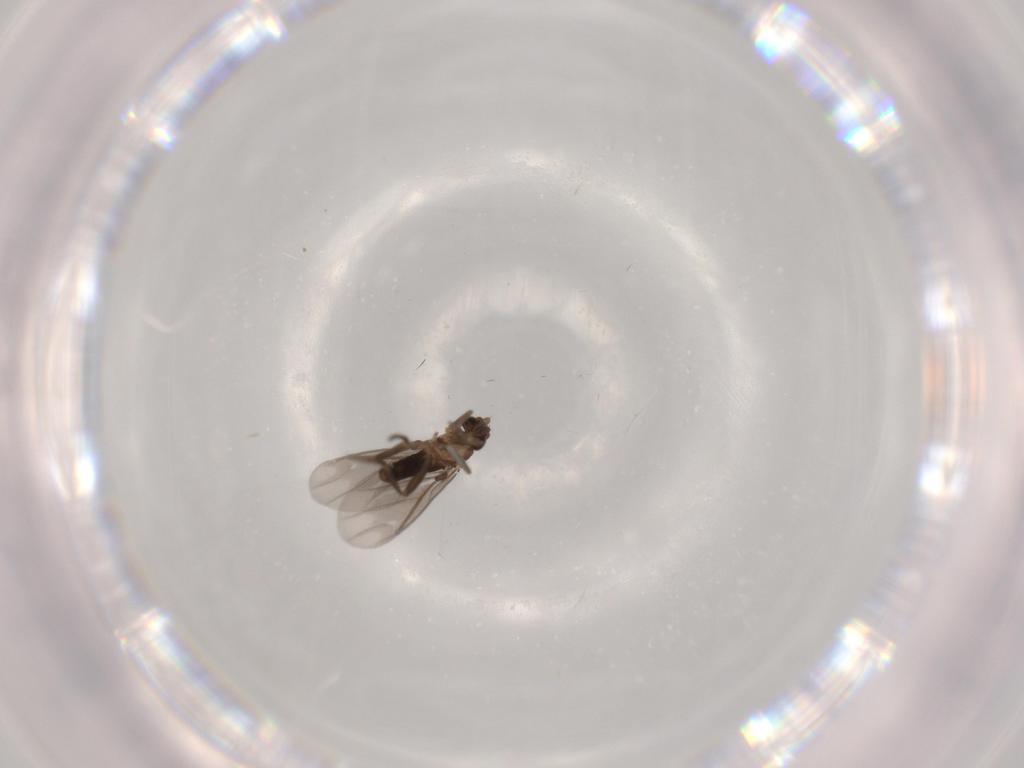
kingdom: Animalia
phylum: Arthropoda
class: Insecta
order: Diptera
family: Phoridae
